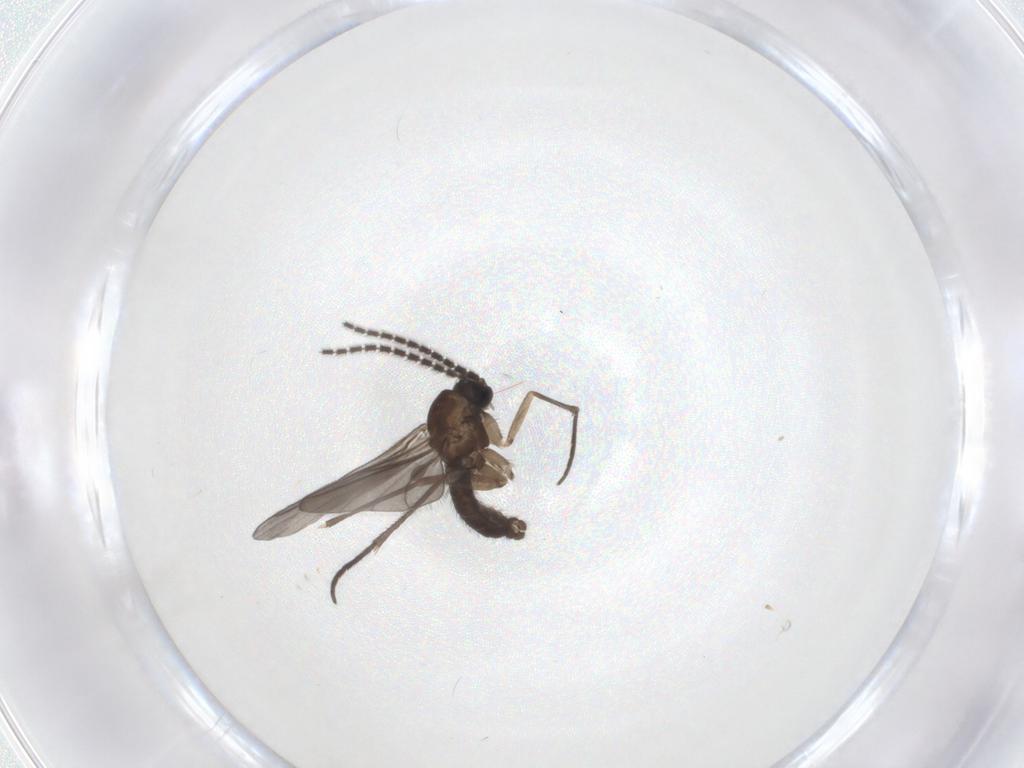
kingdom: Animalia
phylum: Arthropoda
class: Insecta
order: Diptera
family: Sciaridae
